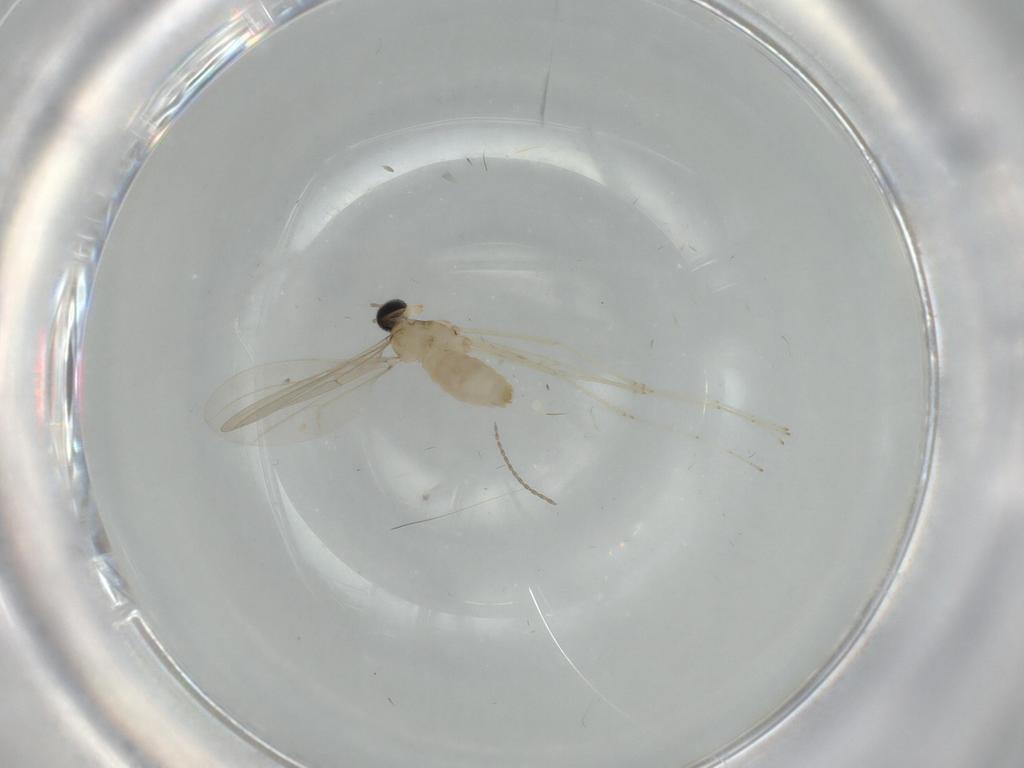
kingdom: Animalia
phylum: Arthropoda
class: Insecta
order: Diptera
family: Cecidomyiidae
